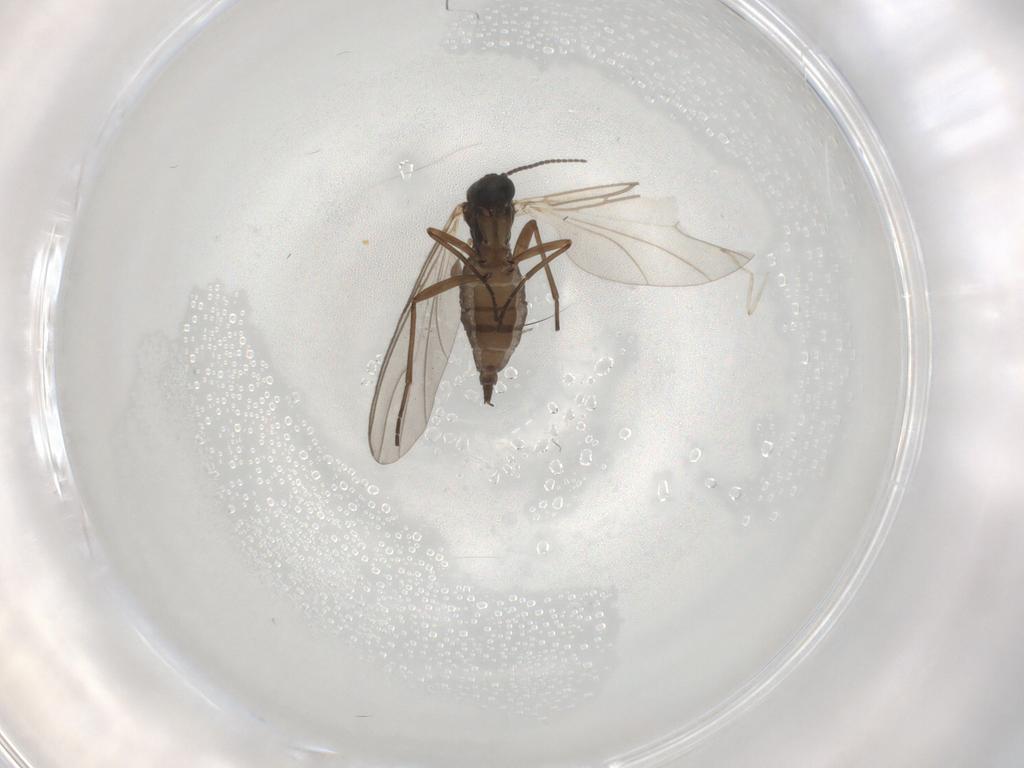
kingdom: Animalia
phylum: Arthropoda
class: Insecta
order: Diptera
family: Sciaridae
